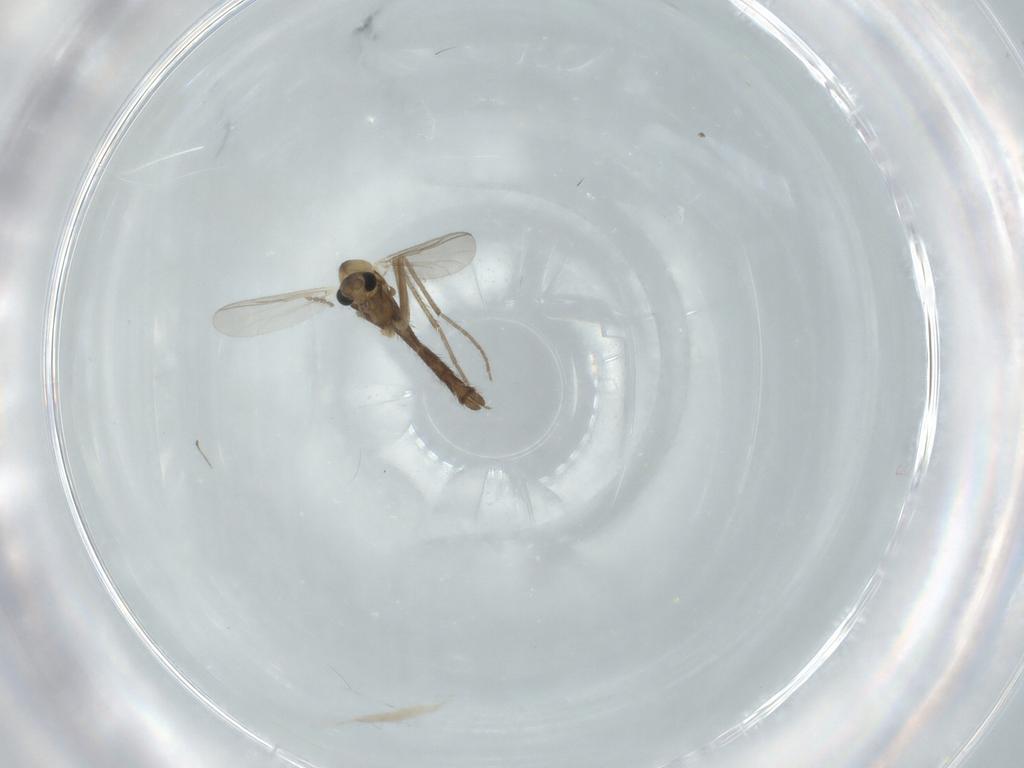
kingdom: Animalia
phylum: Arthropoda
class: Insecta
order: Diptera
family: Chironomidae
